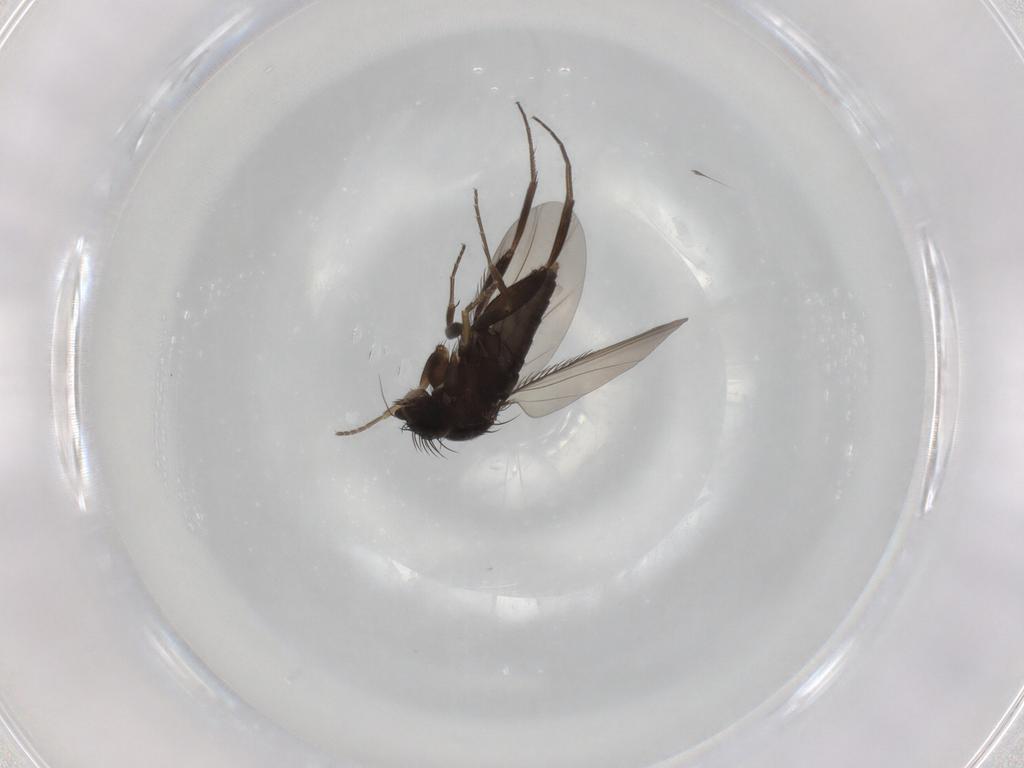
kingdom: Animalia
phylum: Arthropoda
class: Insecta
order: Diptera
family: Phoridae
